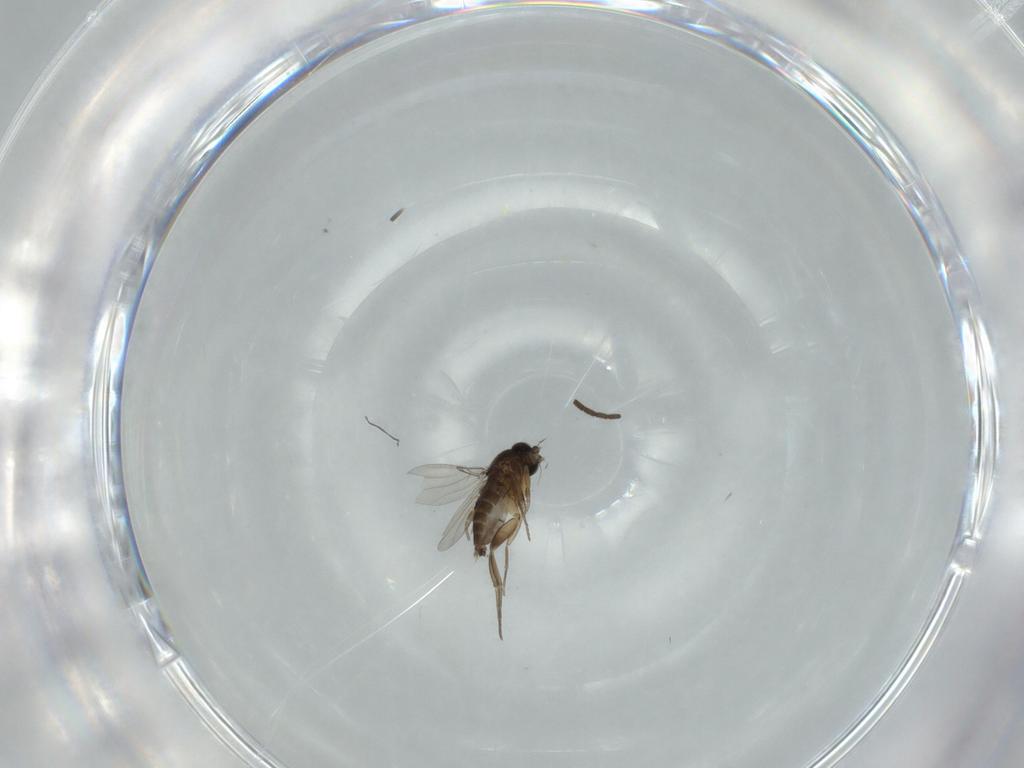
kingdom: Animalia
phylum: Arthropoda
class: Insecta
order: Diptera
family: Phoridae
